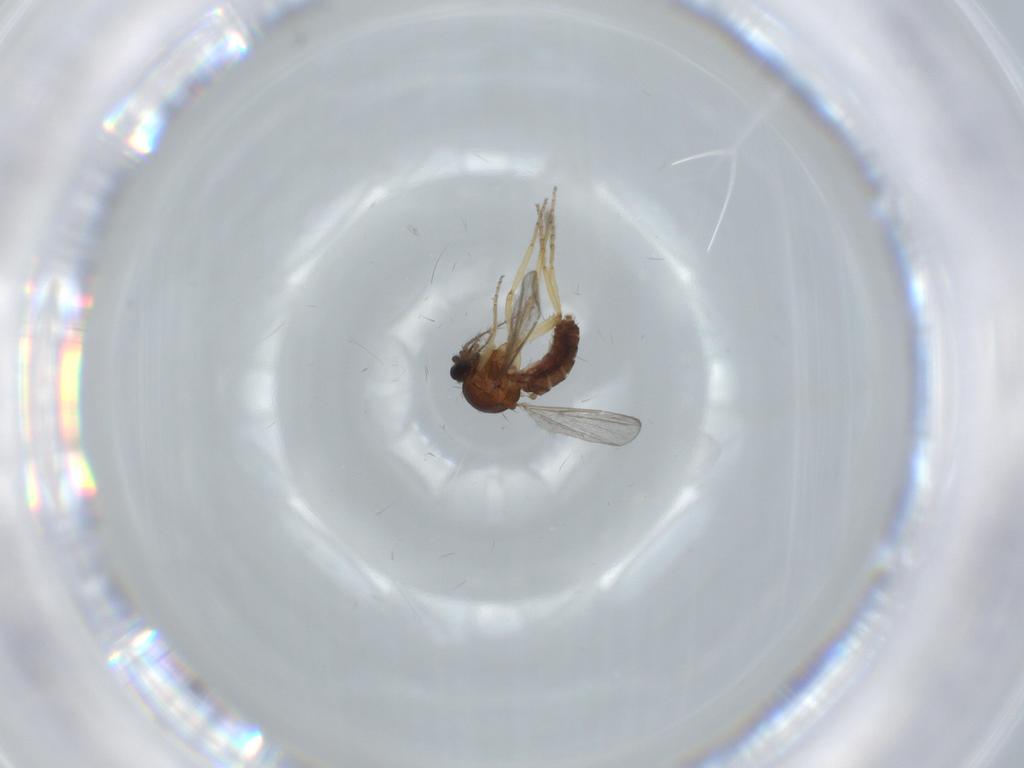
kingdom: Animalia
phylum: Arthropoda
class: Insecta
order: Diptera
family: Ceratopogonidae
